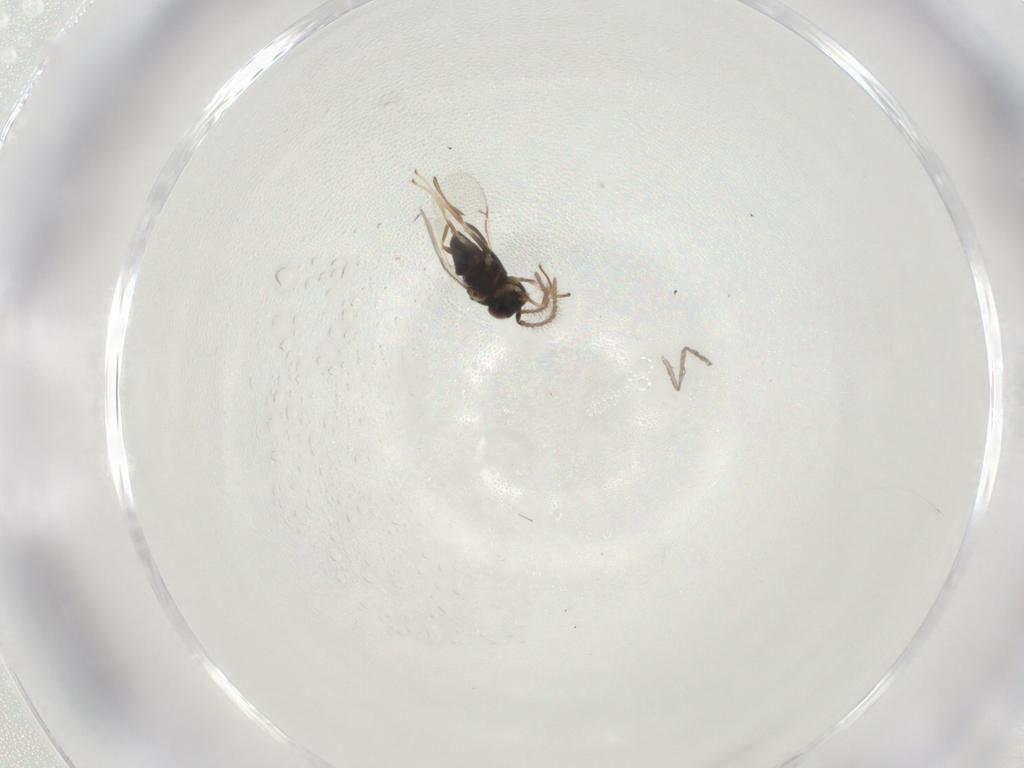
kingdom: Animalia
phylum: Arthropoda
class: Insecta
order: Hymenoptera
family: Encyrtidae
